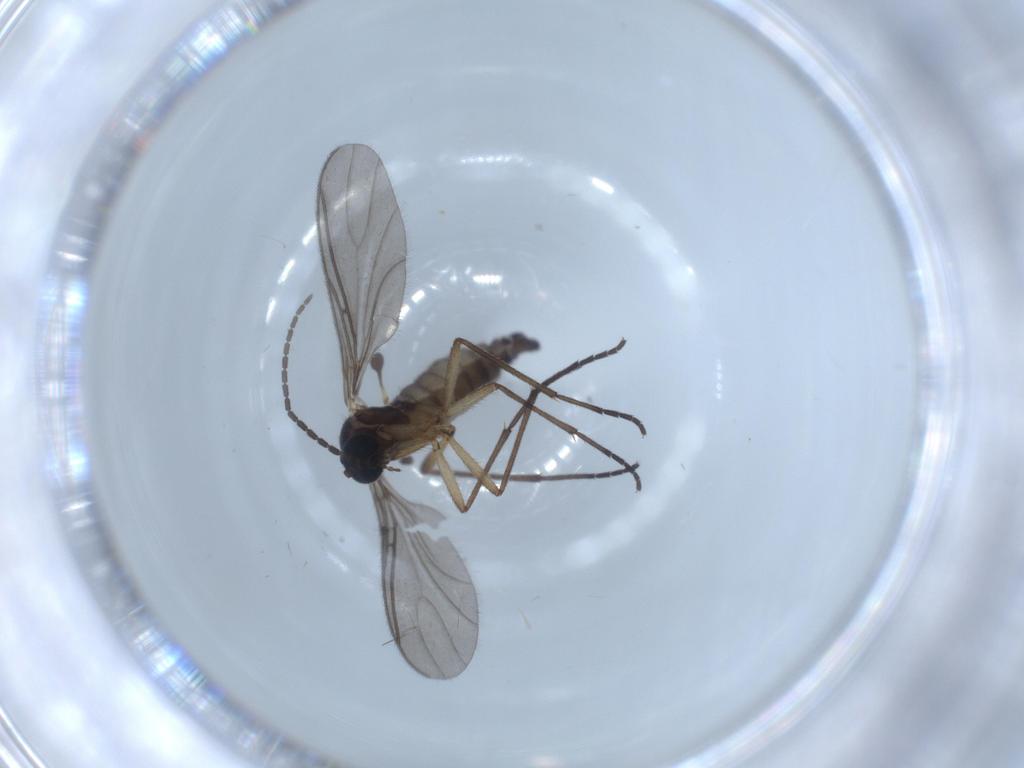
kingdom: Animalia
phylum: Arthropoda
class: Insecta
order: Diptera
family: Sciaridae
